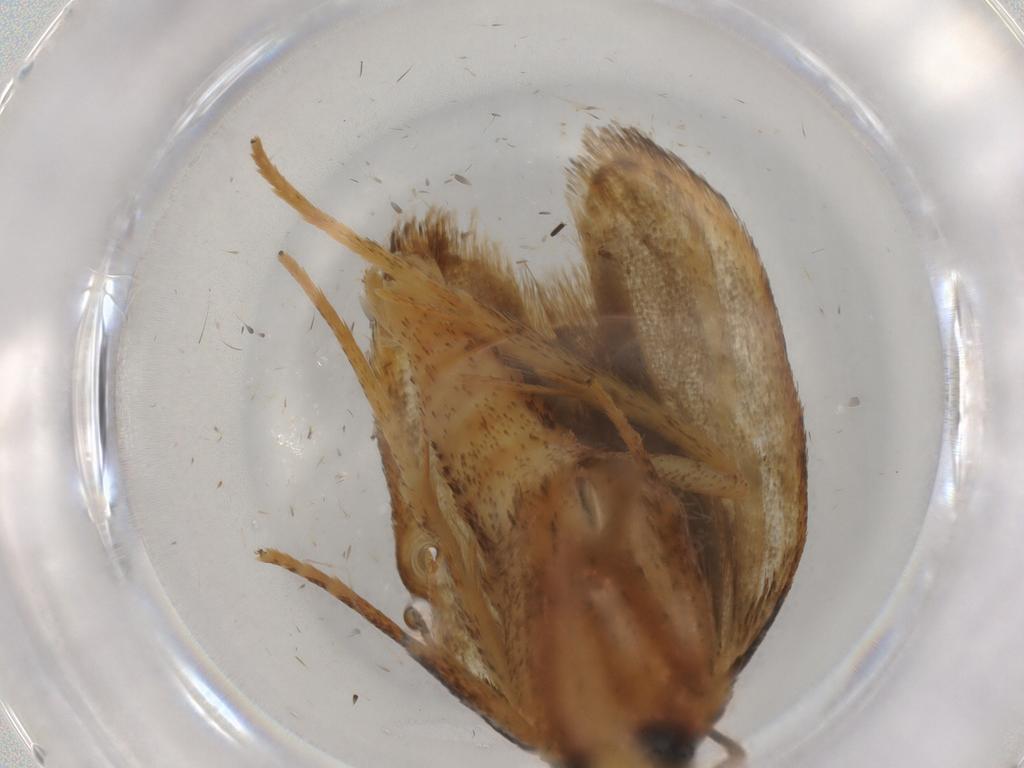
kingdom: Animalia
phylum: Arthropoda
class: Insecta
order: Lepidoptera
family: Autostichidae
